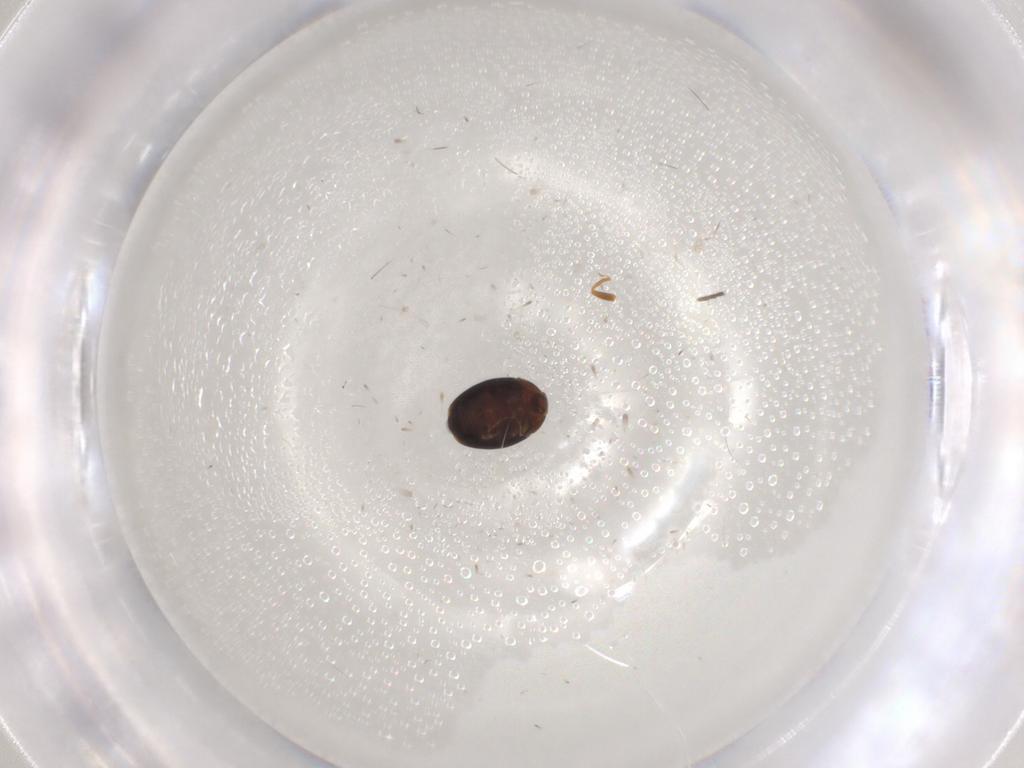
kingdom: Animalia
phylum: Arthropoda
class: Insecta
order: Coleoptera
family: Corylophidae
